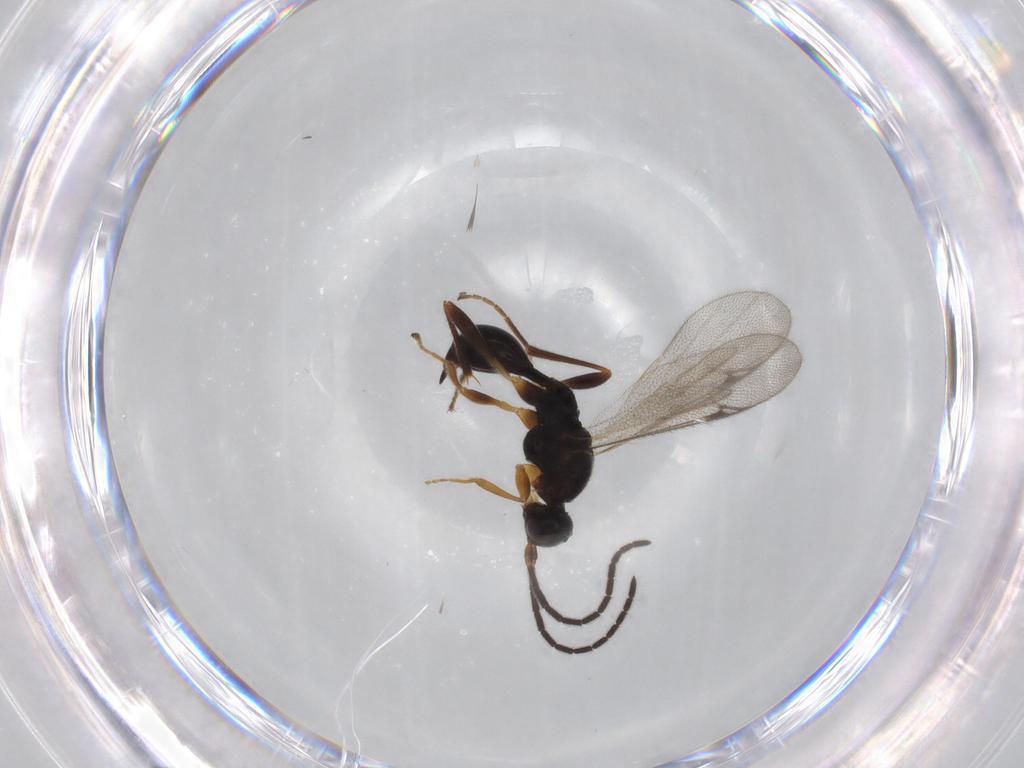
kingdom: Animalia
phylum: Arthropoda
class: Insecta
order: Hymenoptera
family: Proctotrupidae
